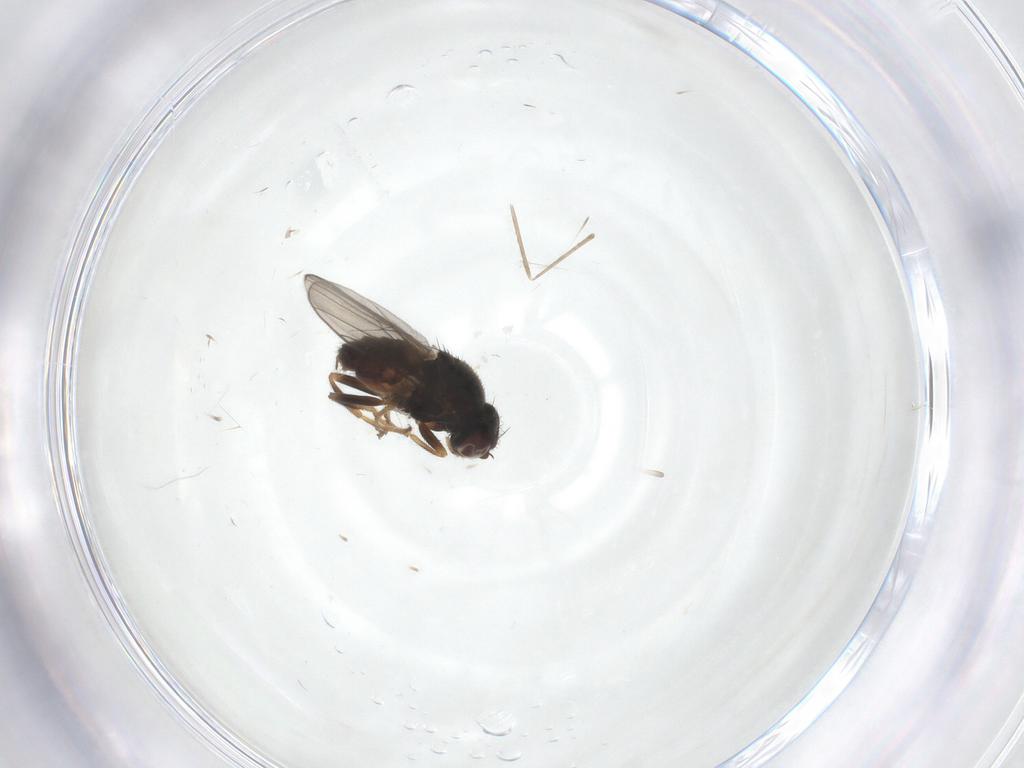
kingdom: Animalia
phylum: Arthropoda
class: Insecta
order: Diptera
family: Chloropidae
